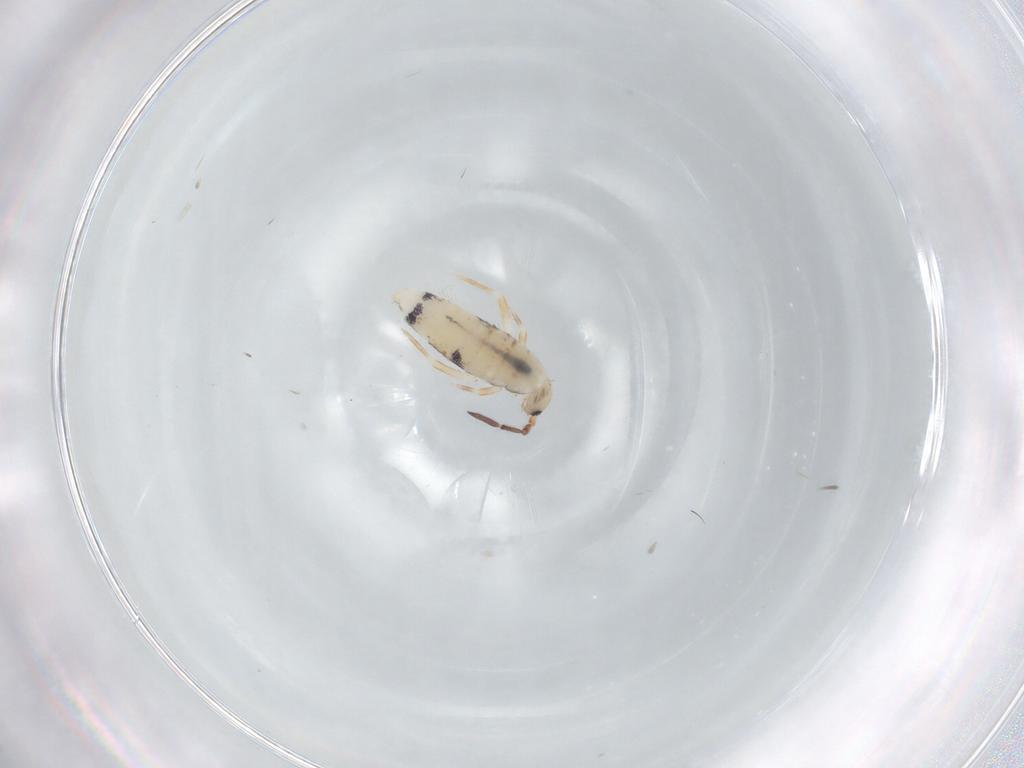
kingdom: Animalia
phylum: Arthropoda
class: Collembola
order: Entomobryomorpha
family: Entomobryidae
